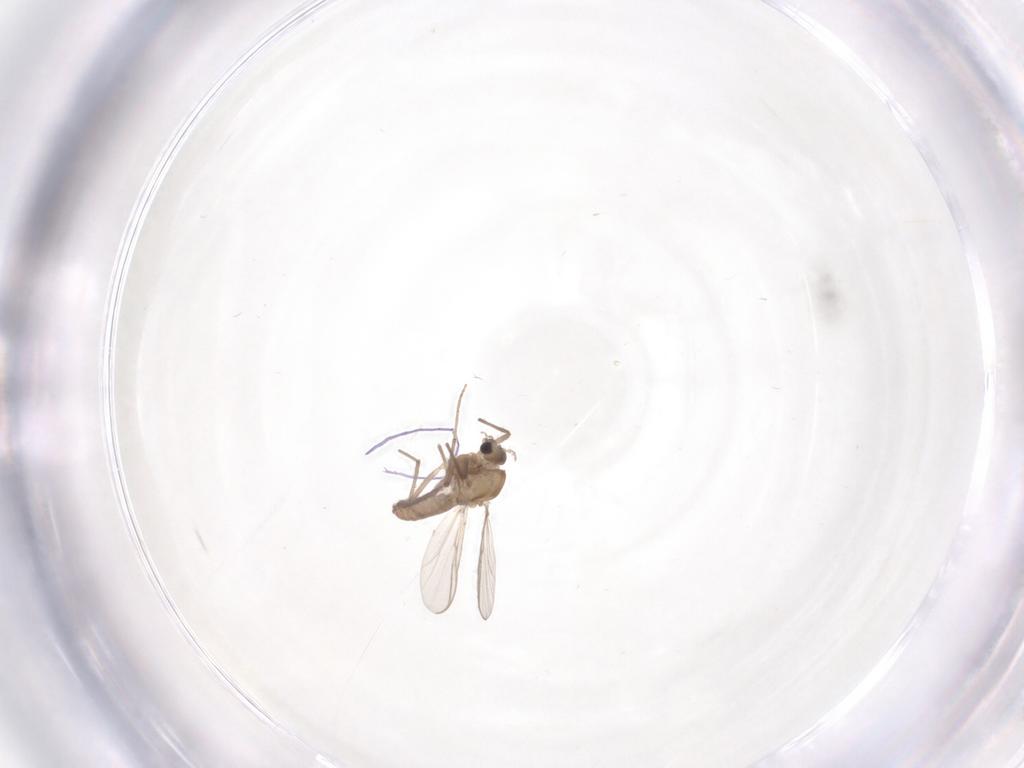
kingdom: Animalia
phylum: Arthropoda
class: Insecta
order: Diptera
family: Chironomidae
